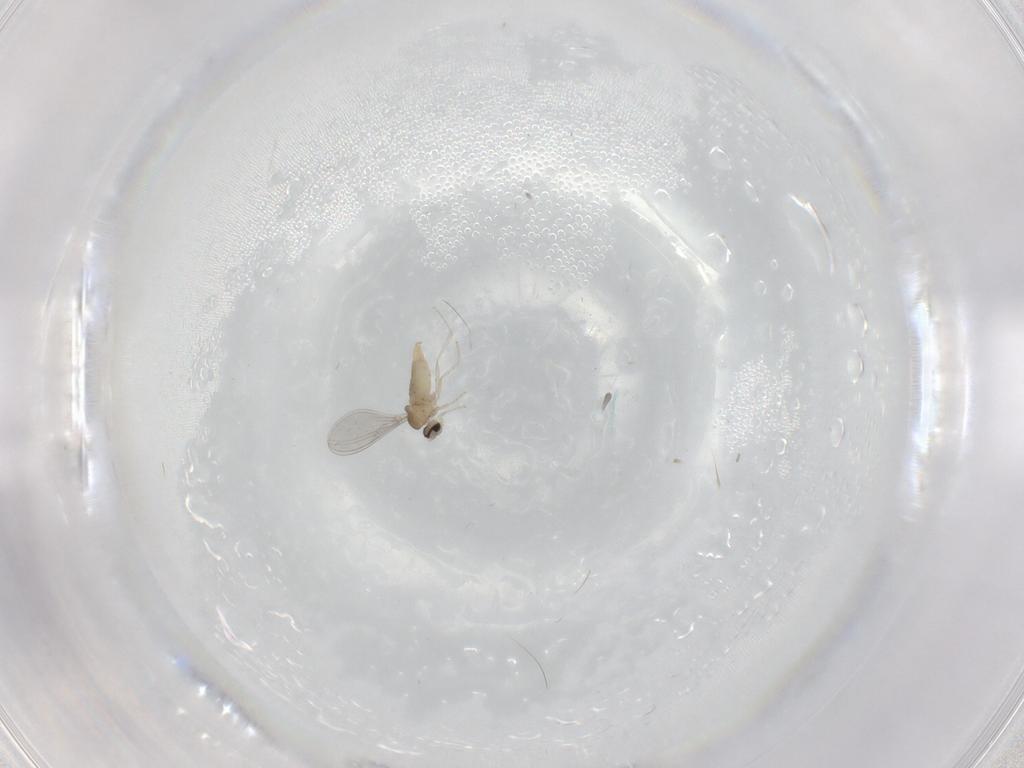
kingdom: Animalia
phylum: Arthropoda
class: Insecta
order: Diptera
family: Cecidomyiidae
